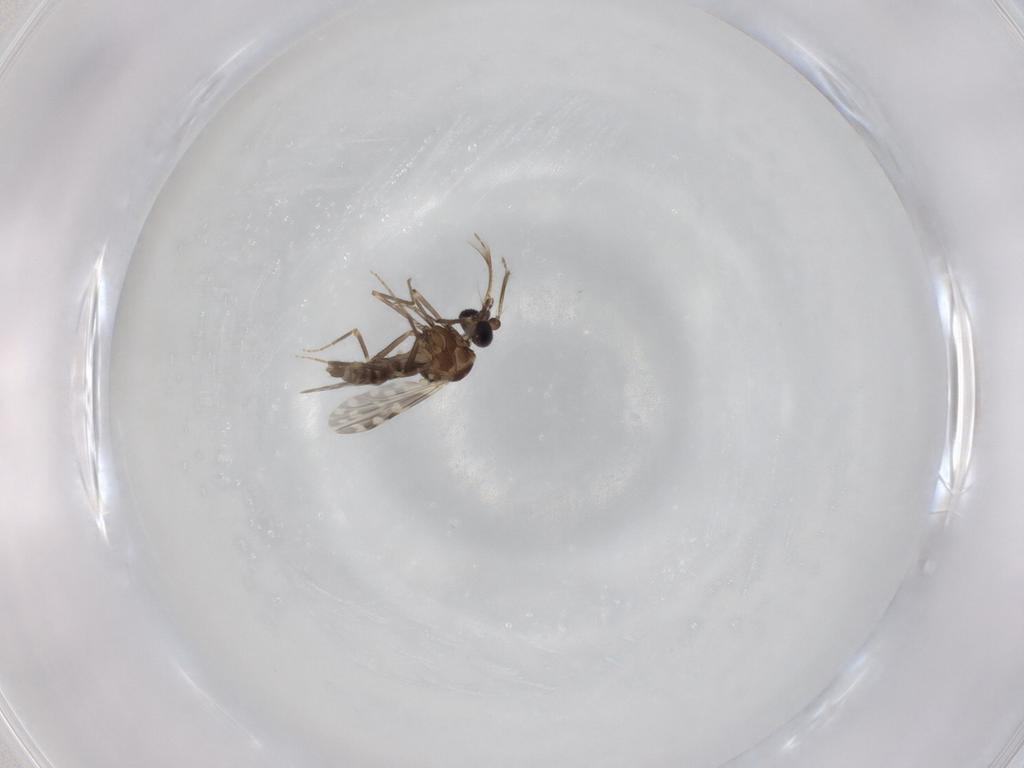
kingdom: Animalia
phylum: Arthropoda
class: Insecta
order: Diptera
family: Ceratopogonidae
